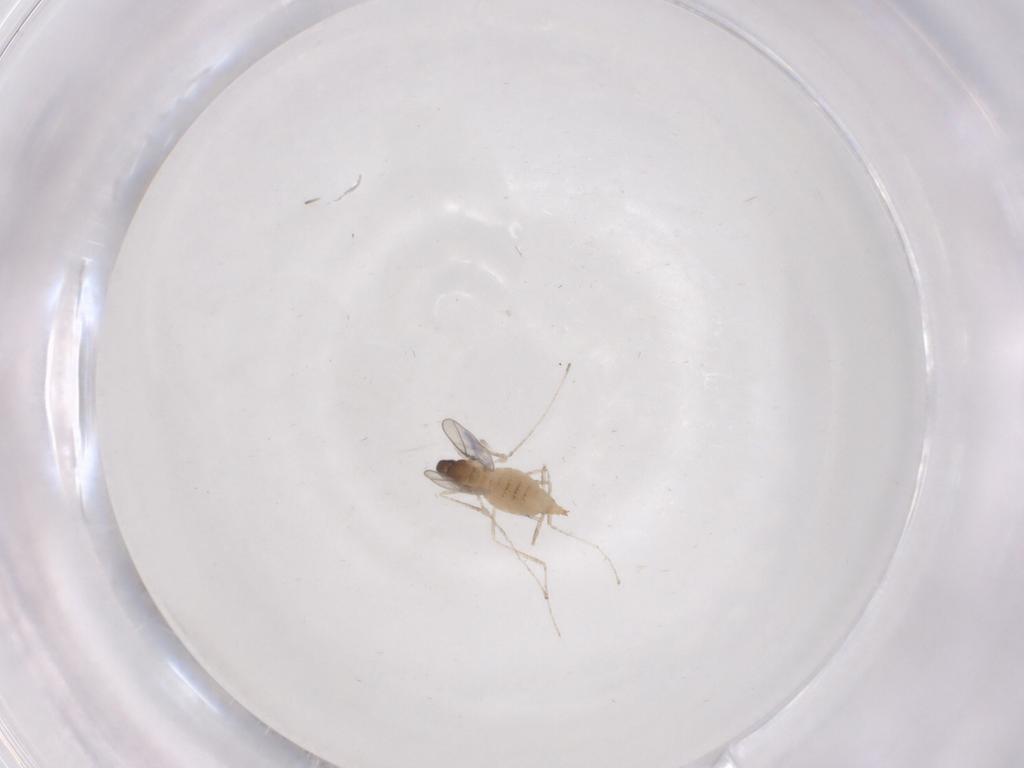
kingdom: Animalia
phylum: Arthropoda
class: Insecta
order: Diptera
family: Cecidomyiidae
